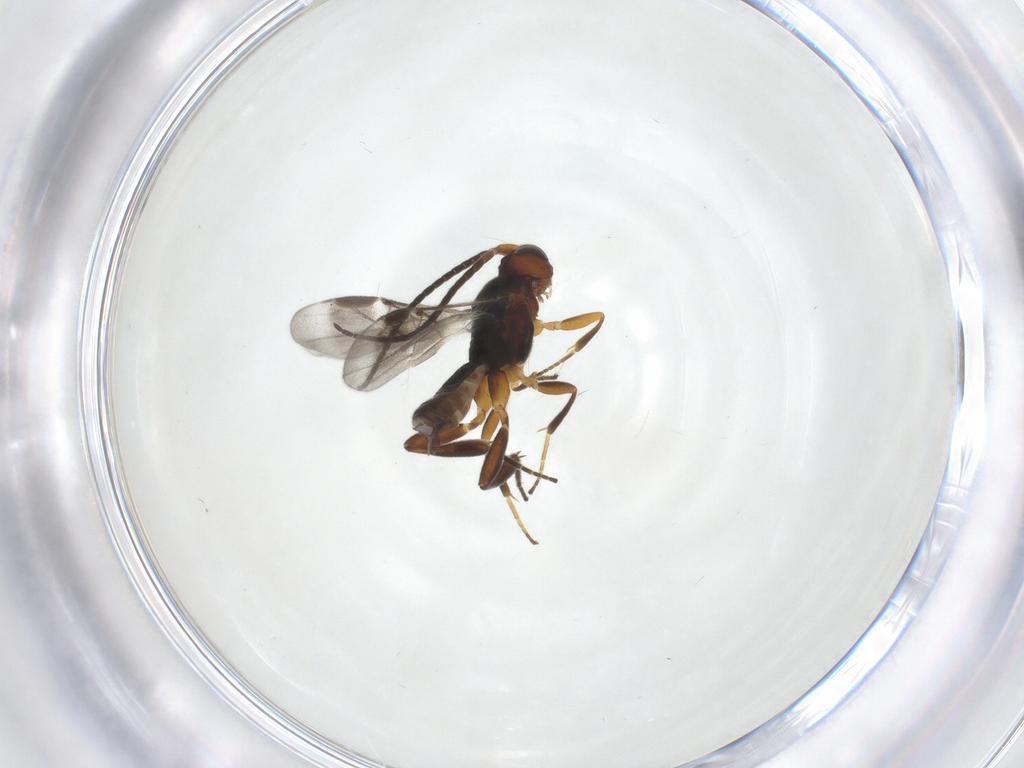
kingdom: Animalia
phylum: Arthropoda
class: Insecta
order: Hymenoptera
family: Braconidae
